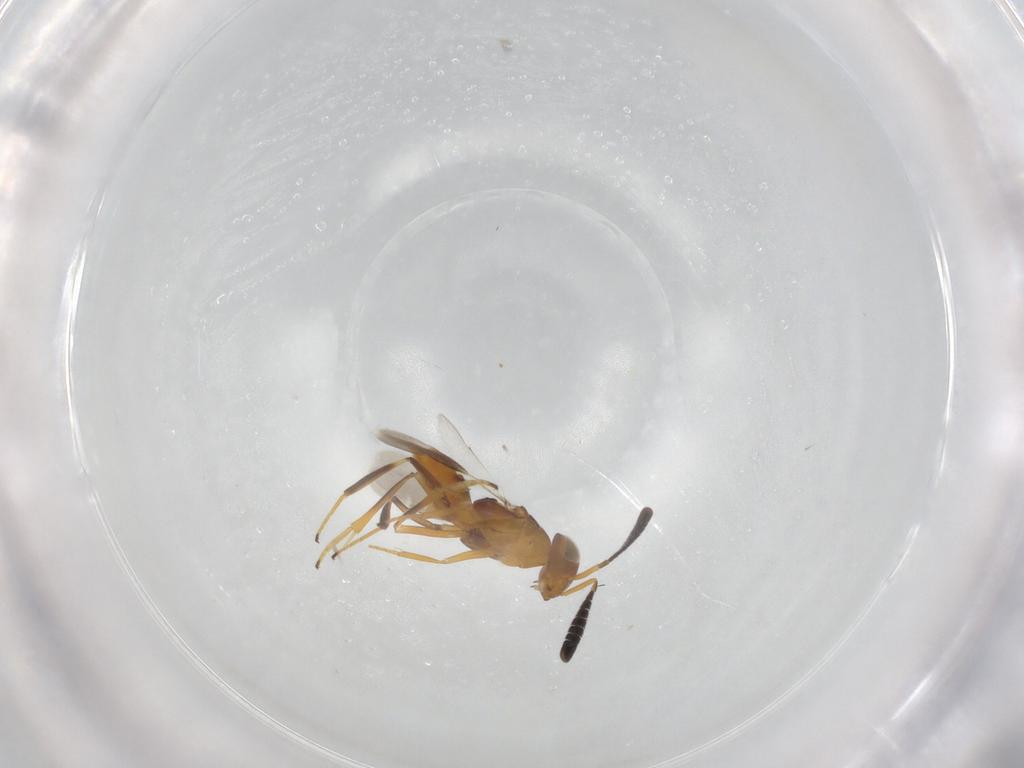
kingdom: Animalia
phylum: Arthropoda
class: Insecta
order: Hymenoptera
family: Encyrtidae
